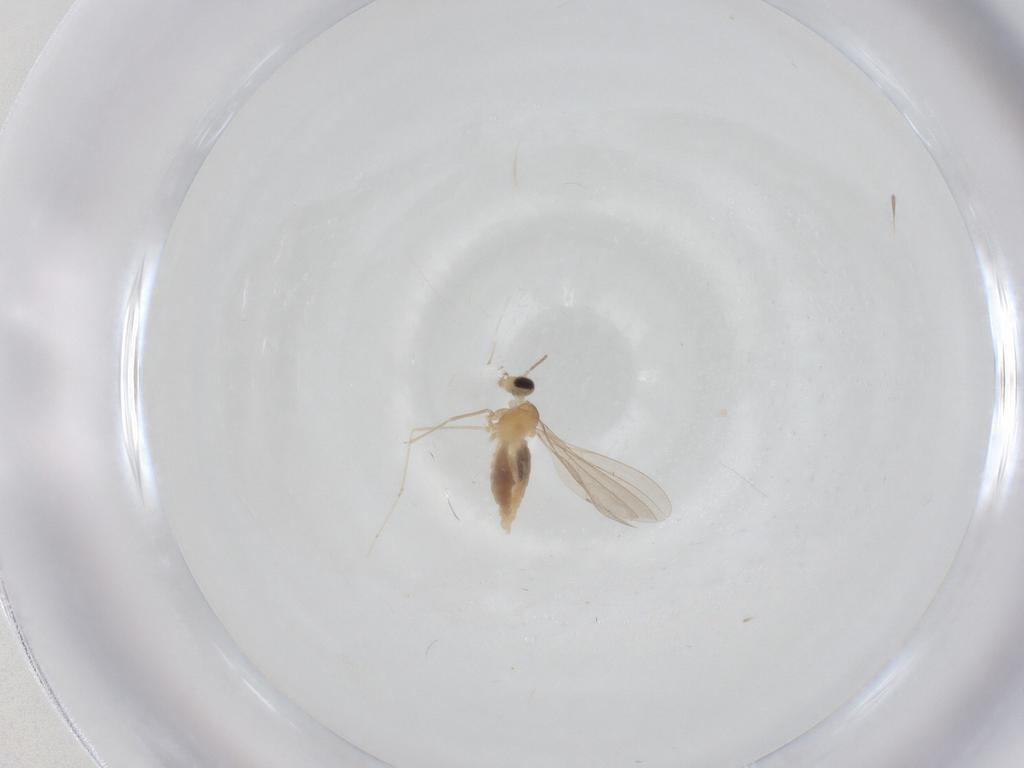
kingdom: Animalia
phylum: Arthropoda
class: Insecta
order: Diptera
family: Cecidomyiidae
